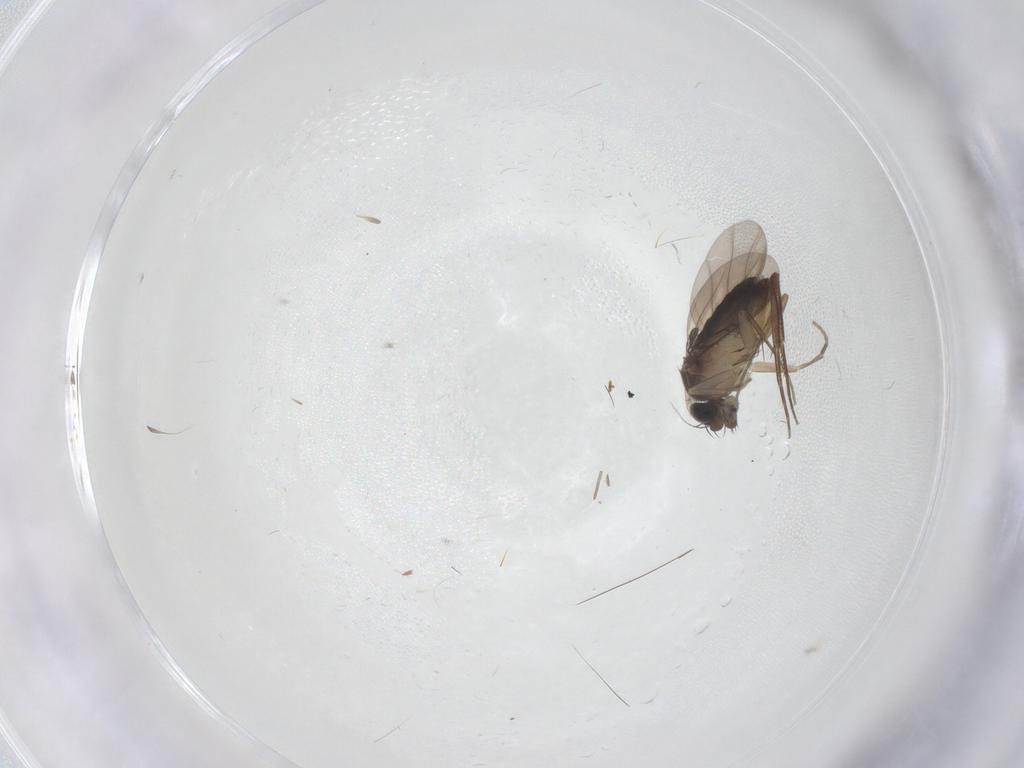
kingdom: Animalia
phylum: Arthropoda
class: Insecta
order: Diptera
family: Phoridae
